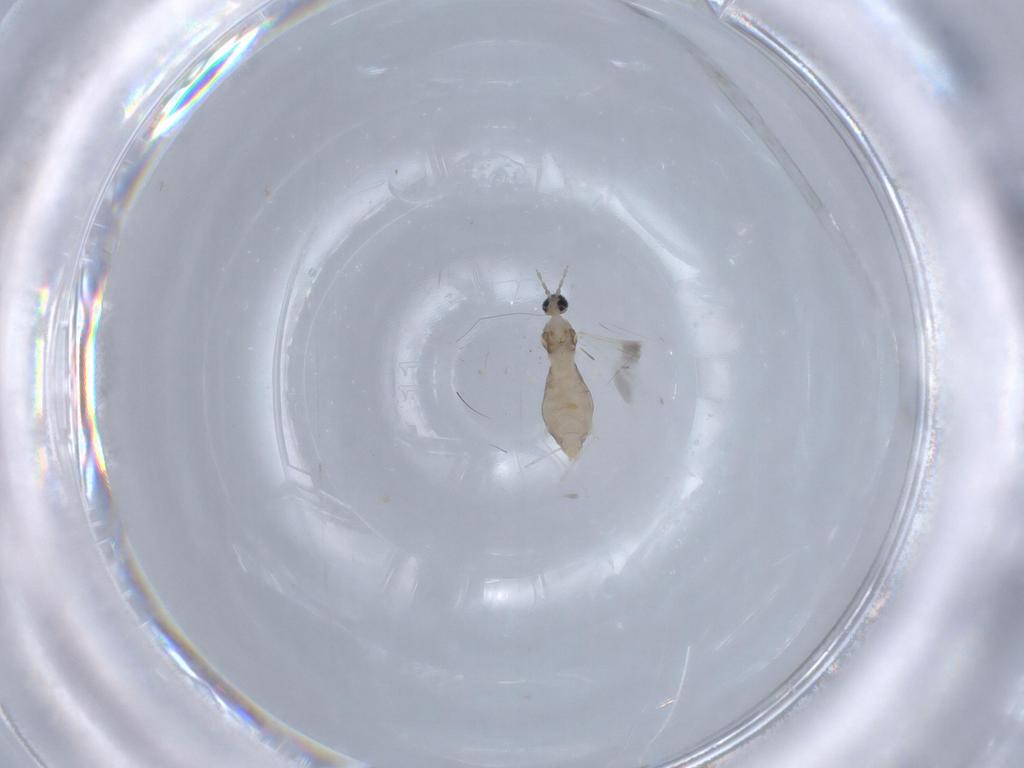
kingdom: Animalia
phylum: Arthropoda
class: Insecta
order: Diptera
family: Cecidomyiidae
